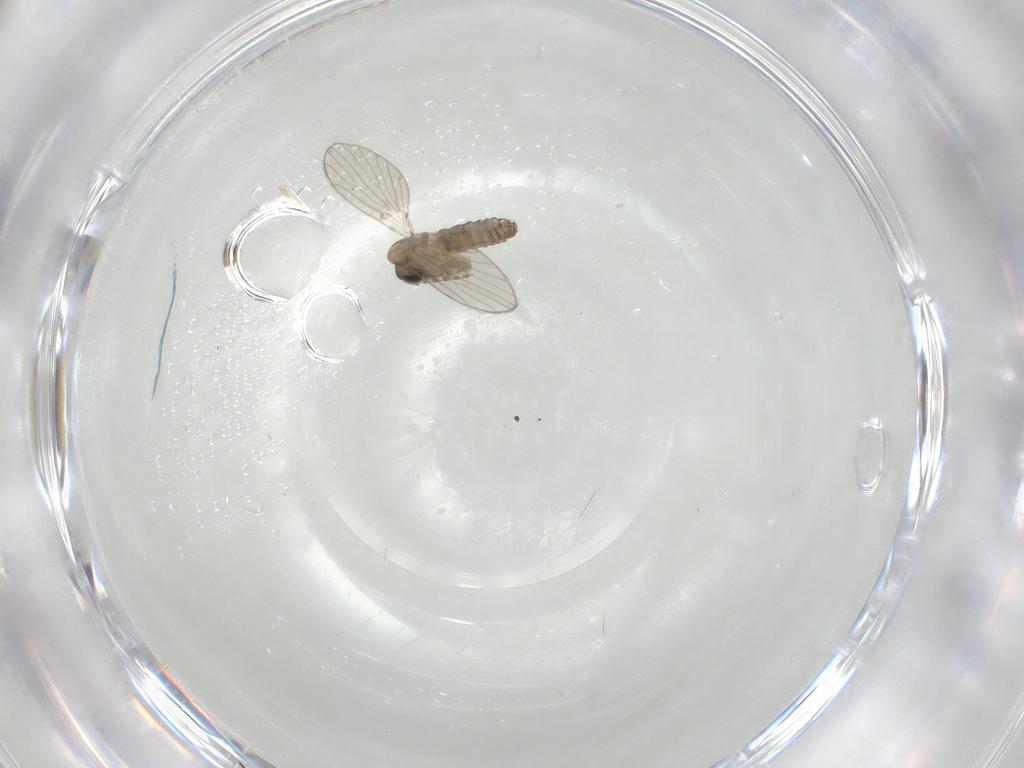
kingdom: Animalia
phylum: Arthropoda
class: Insecta
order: Diptera
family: Psychodidae
